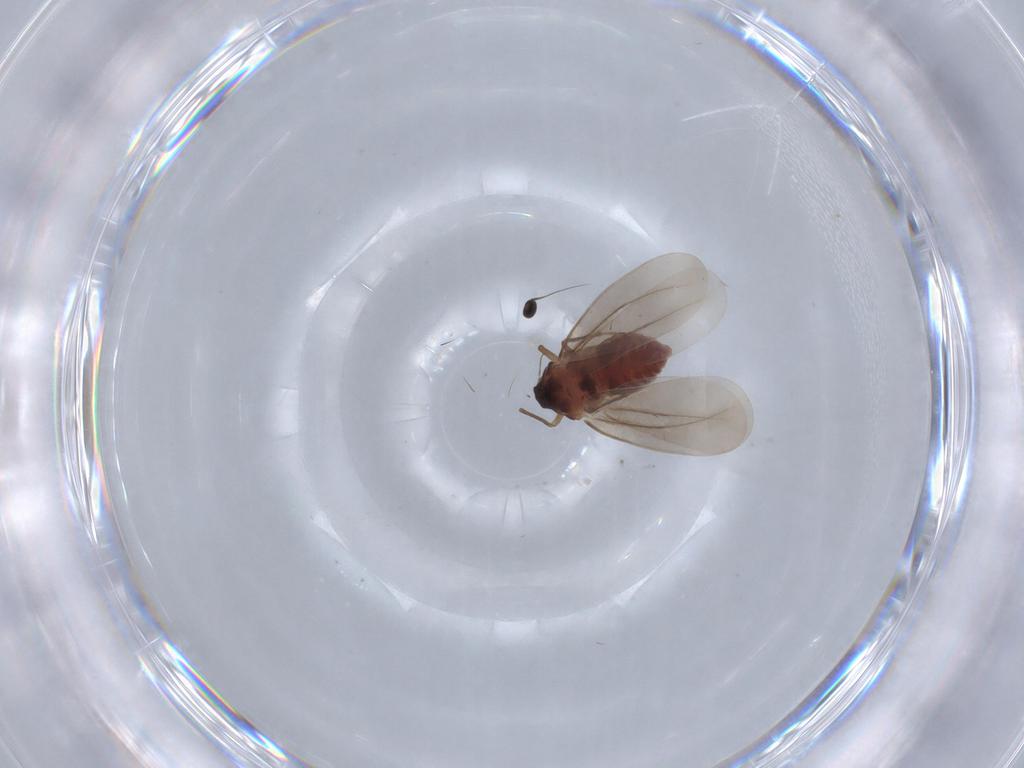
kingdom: Animalia
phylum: Arthropoda
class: Insecta
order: Hemiptera
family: Aleyrodidae
